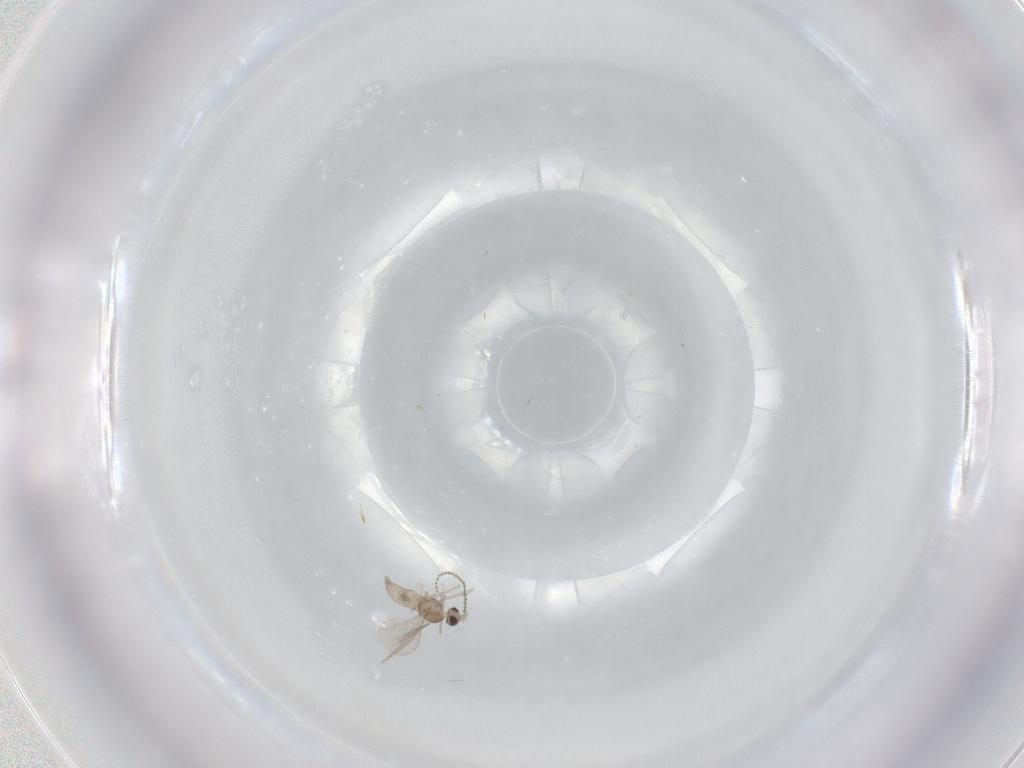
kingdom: Animalia
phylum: Arthropoda
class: Insecta
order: Diptera
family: Cecidomyiidae
